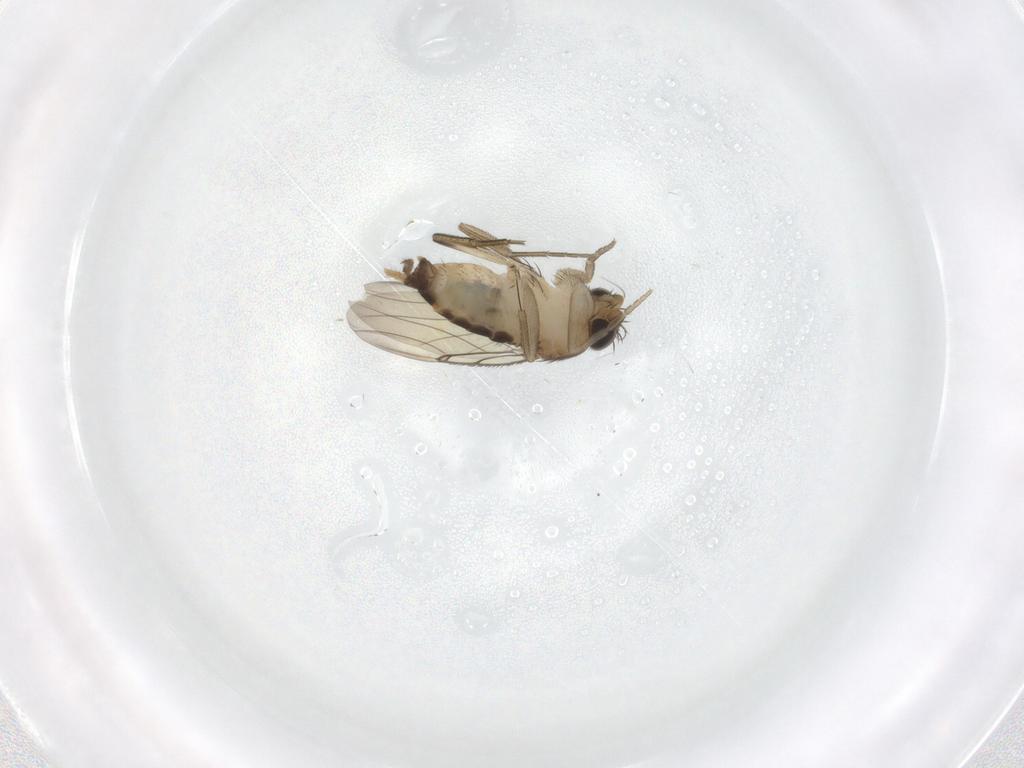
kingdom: Animalia
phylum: Arthropoda
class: Insecta
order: Diptera
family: Phoridae
